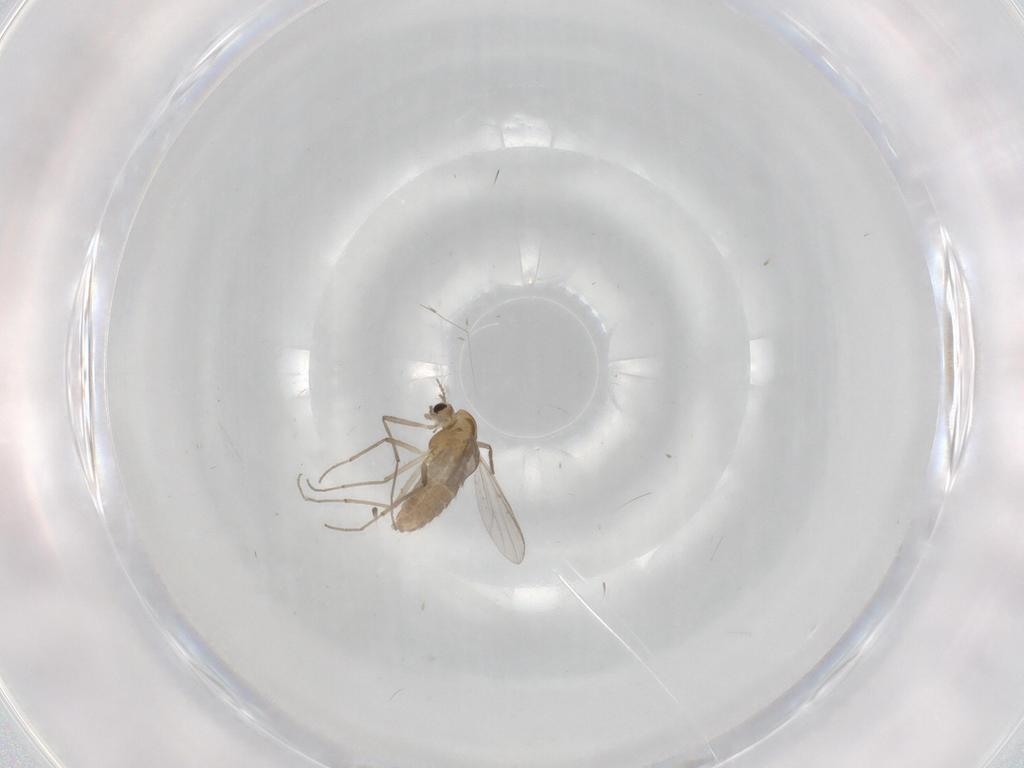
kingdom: Animalia
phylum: Arthropoda
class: Insecta
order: Diptera
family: Chironomidae
